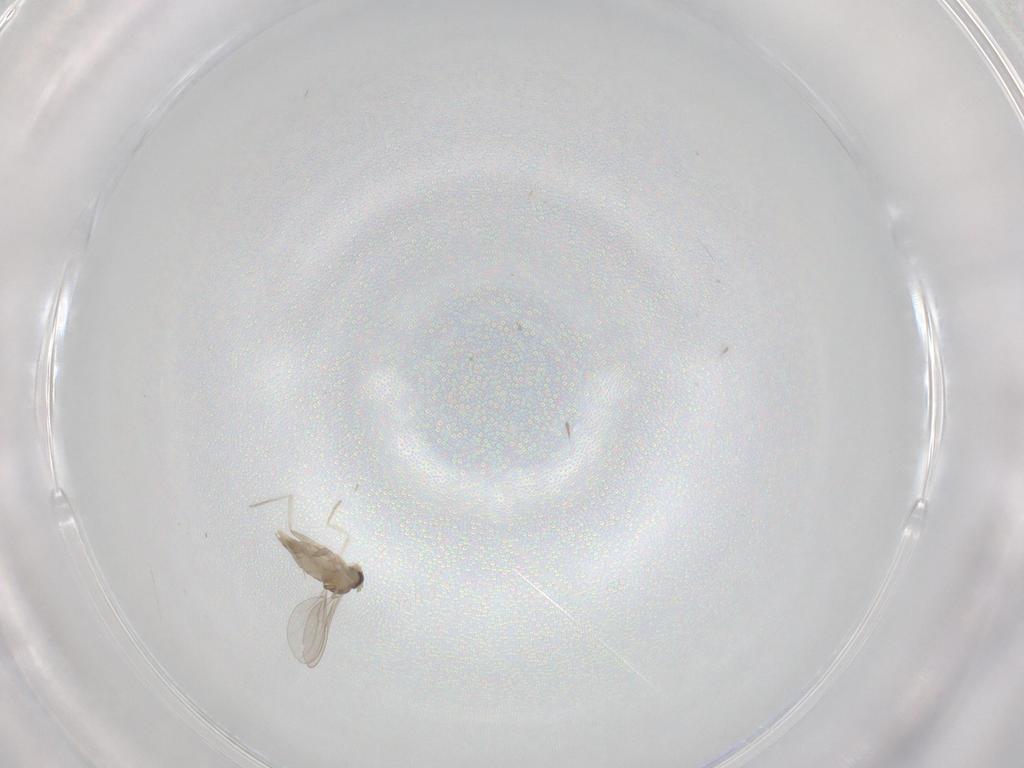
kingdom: Animalia
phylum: Arthropoda
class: Insecta
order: Diptera
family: Cecidomyiidae
